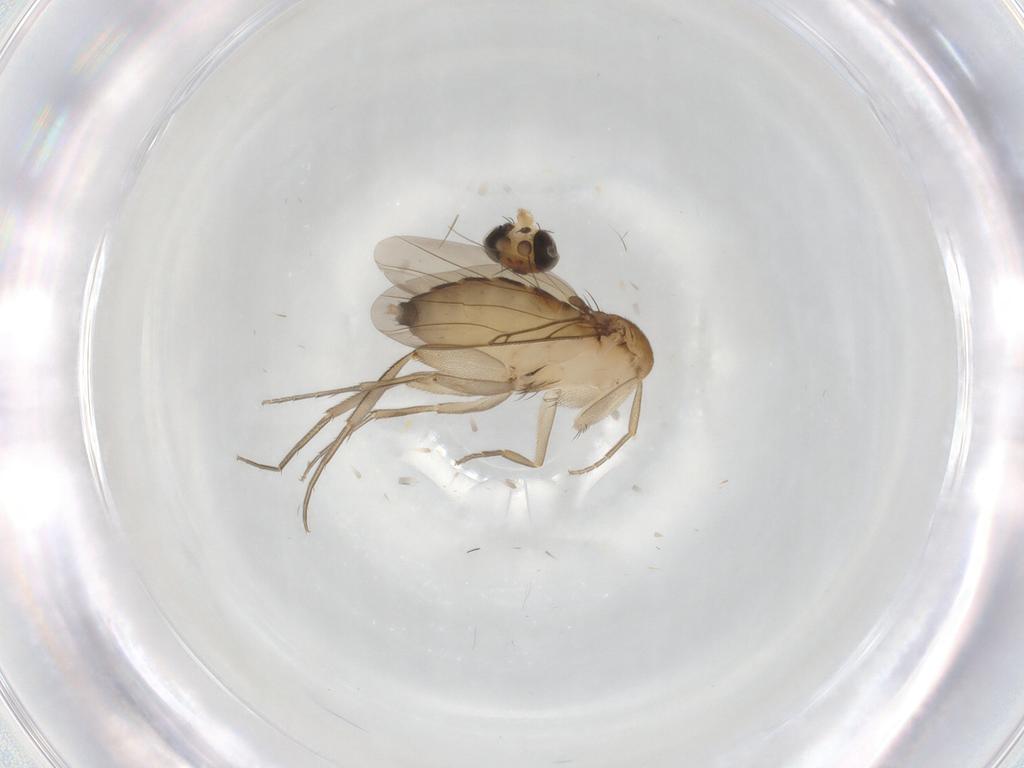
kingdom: Animalia
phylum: Arthropoda
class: Insecta
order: Diptera
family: Phoridae
